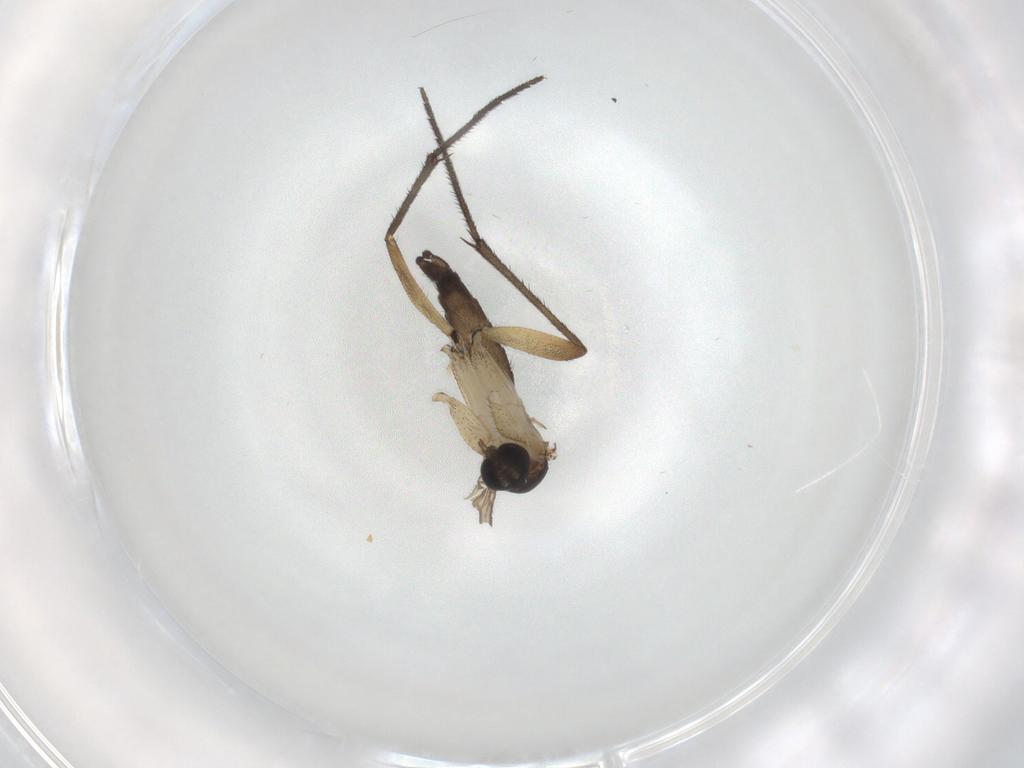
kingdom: Animalia
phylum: Arthropoda
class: Insecta
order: Diptera
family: Sciaridae
